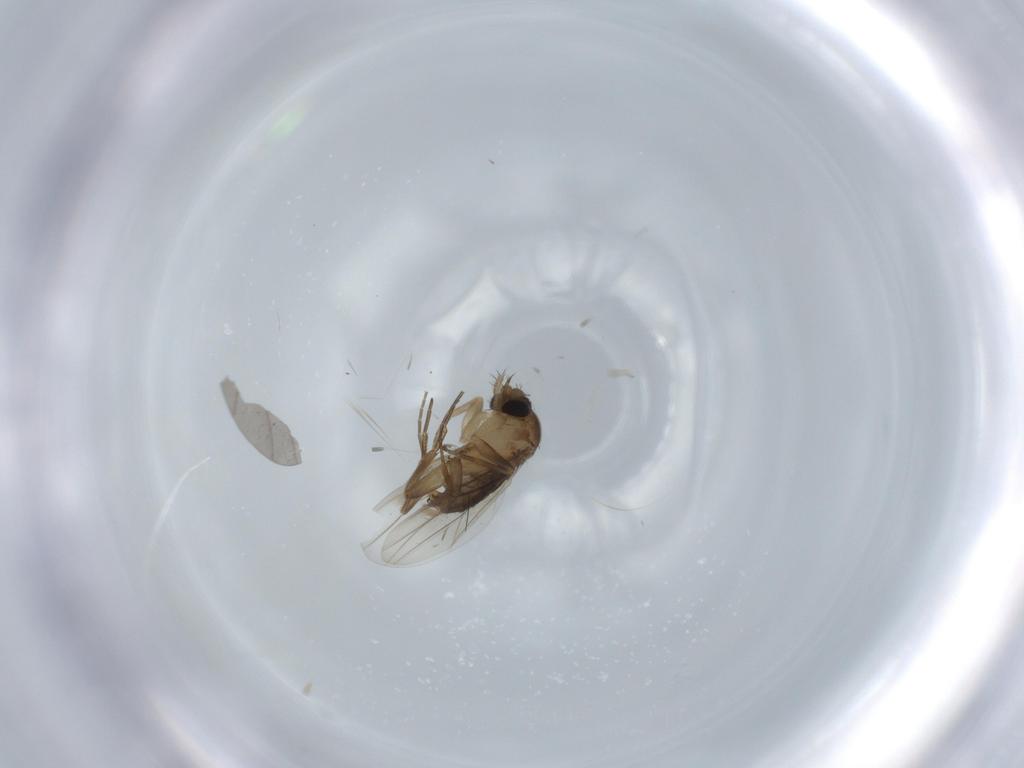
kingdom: Animalia
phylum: Arthropoda
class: Insecta
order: Diptera
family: Phoridae
